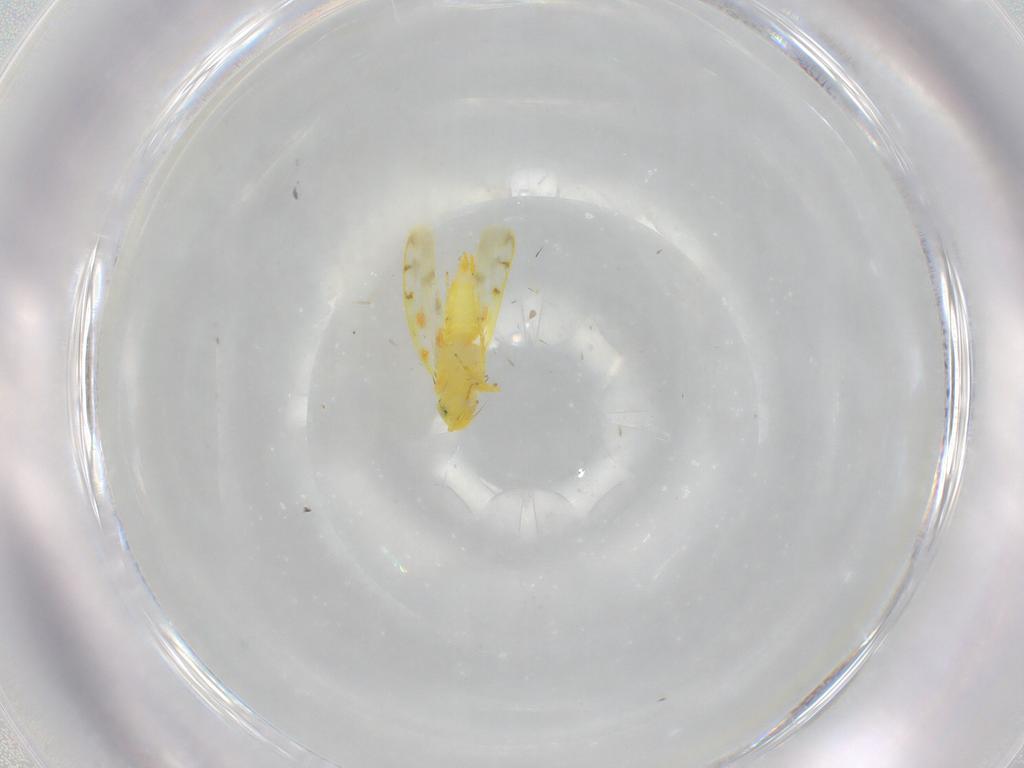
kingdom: Animalia
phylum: Arthropoda
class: Insecta
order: Hemiptera
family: Cicadellidae
